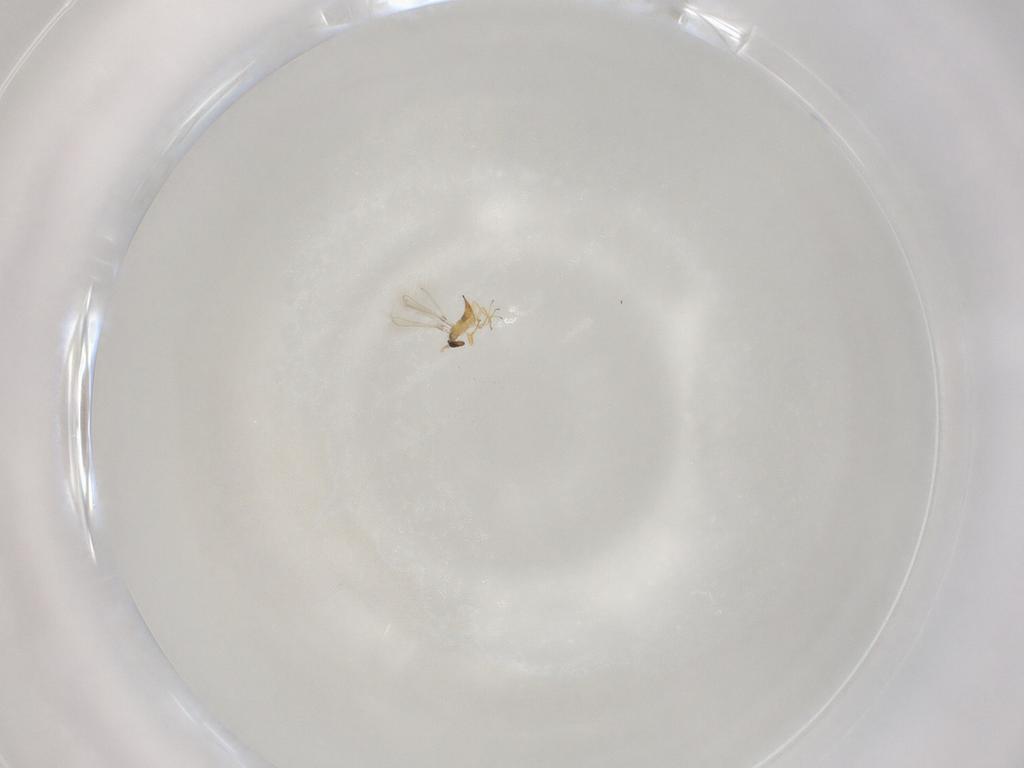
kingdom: Animalia
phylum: Arthropoda
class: Insecta
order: Hymenoptera
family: Mymaridae
